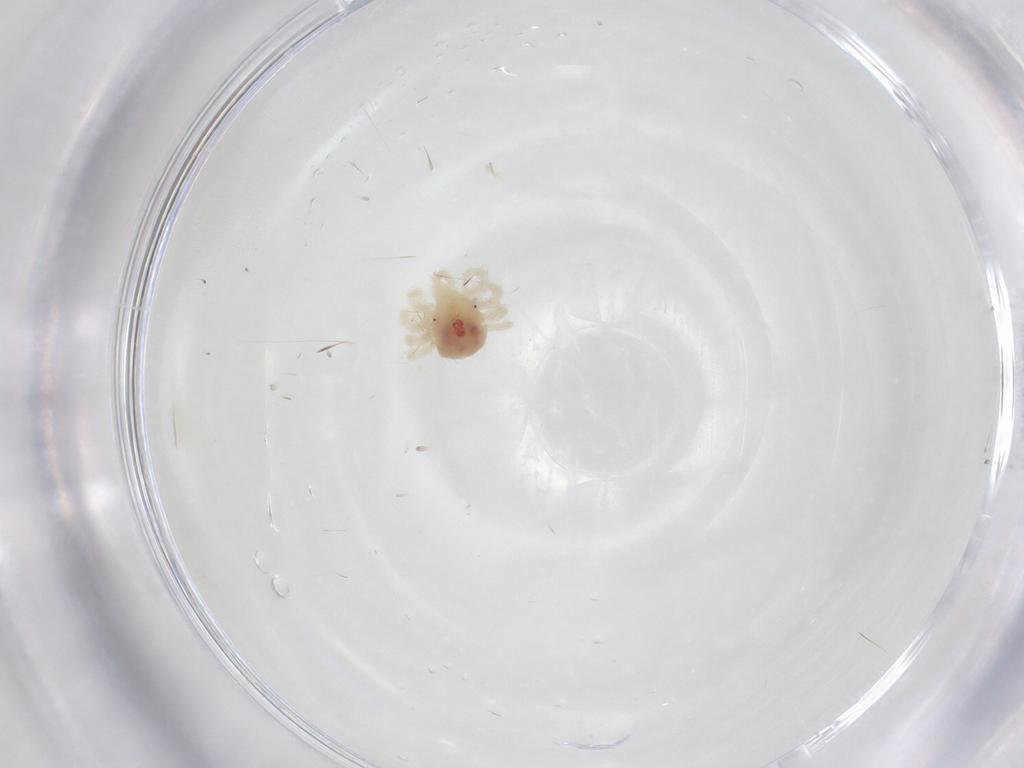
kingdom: Animalia
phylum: Arthropoda
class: Arachnida
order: Trombidiformes
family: Anystidae
